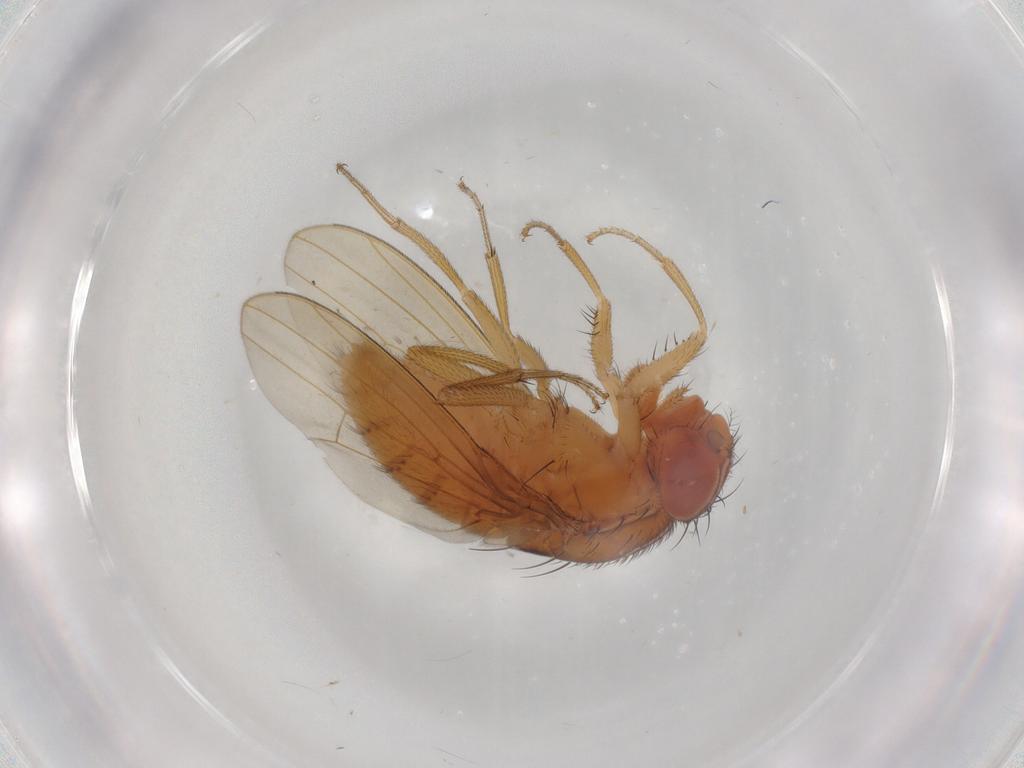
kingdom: Animalia
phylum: Arthropoda
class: Insecta
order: Diptera
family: Drosophilidae
